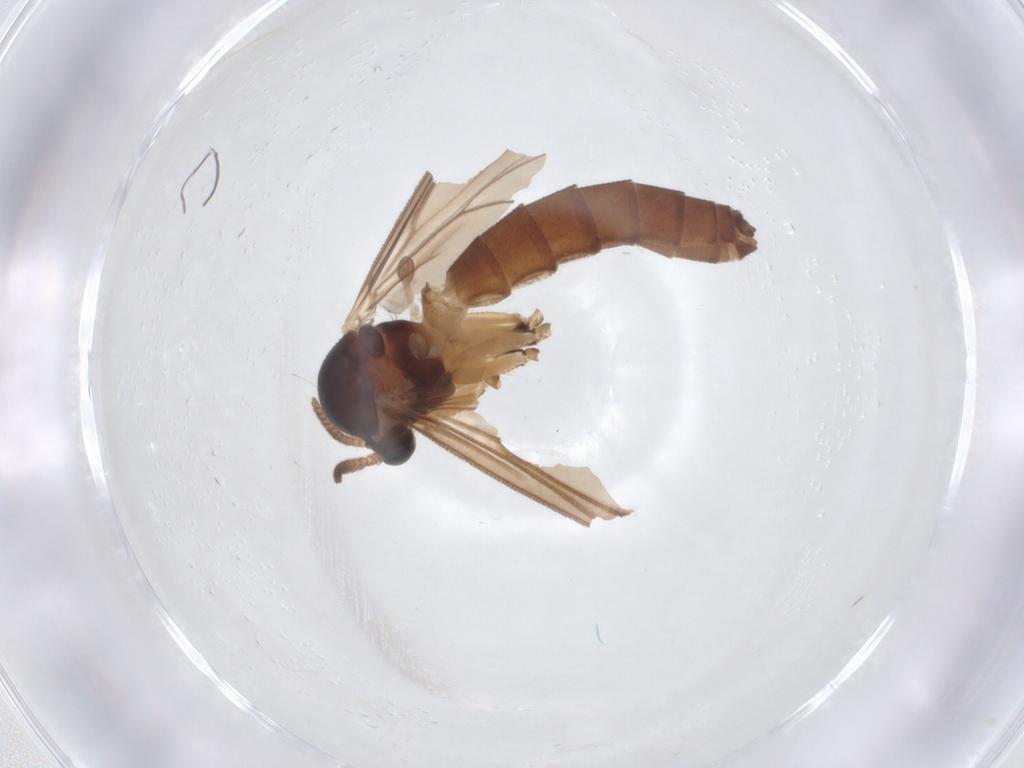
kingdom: Animalia
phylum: Arthropoda
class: Insecta
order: Diptera
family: Mycetophilidae
